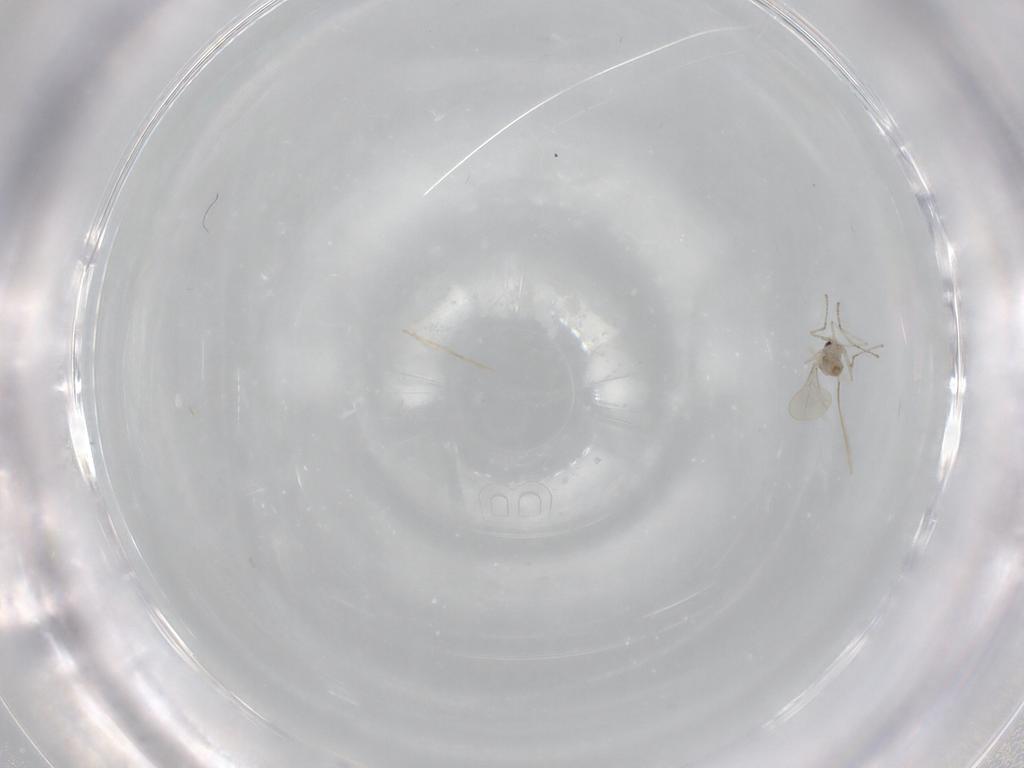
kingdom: Animalia
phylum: Arthropoda
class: Insecta
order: Diptera
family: Cecidomyiidae
